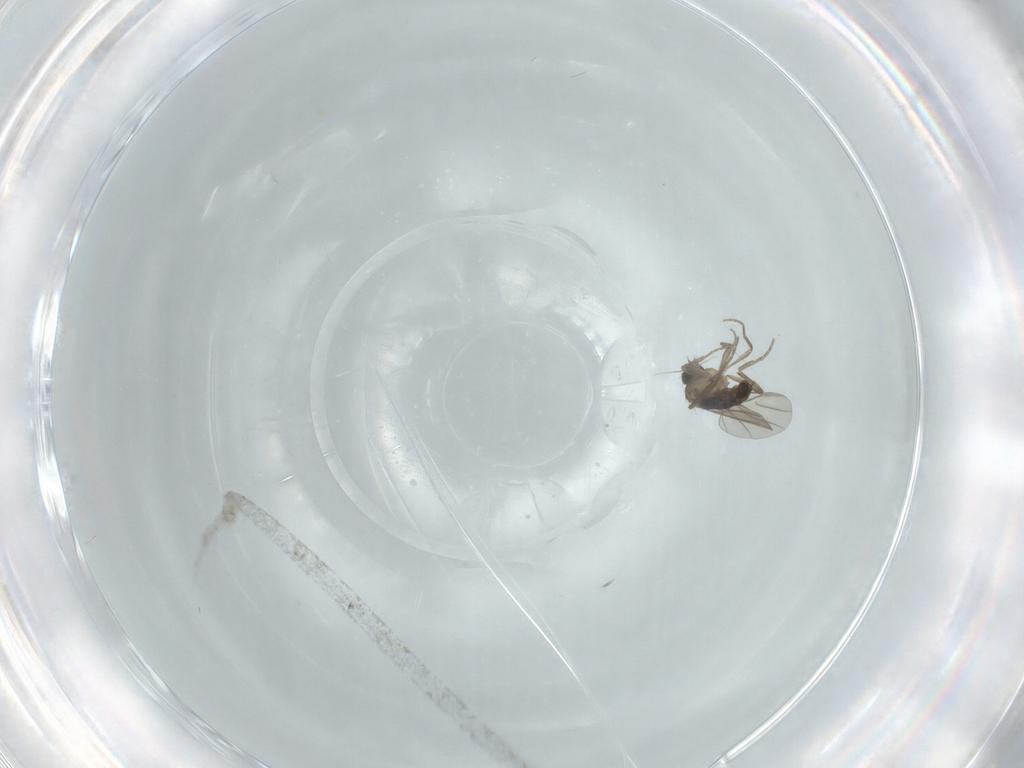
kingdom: Animalia
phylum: Arthropoda
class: Insecta
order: Diptera
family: Phoridae
